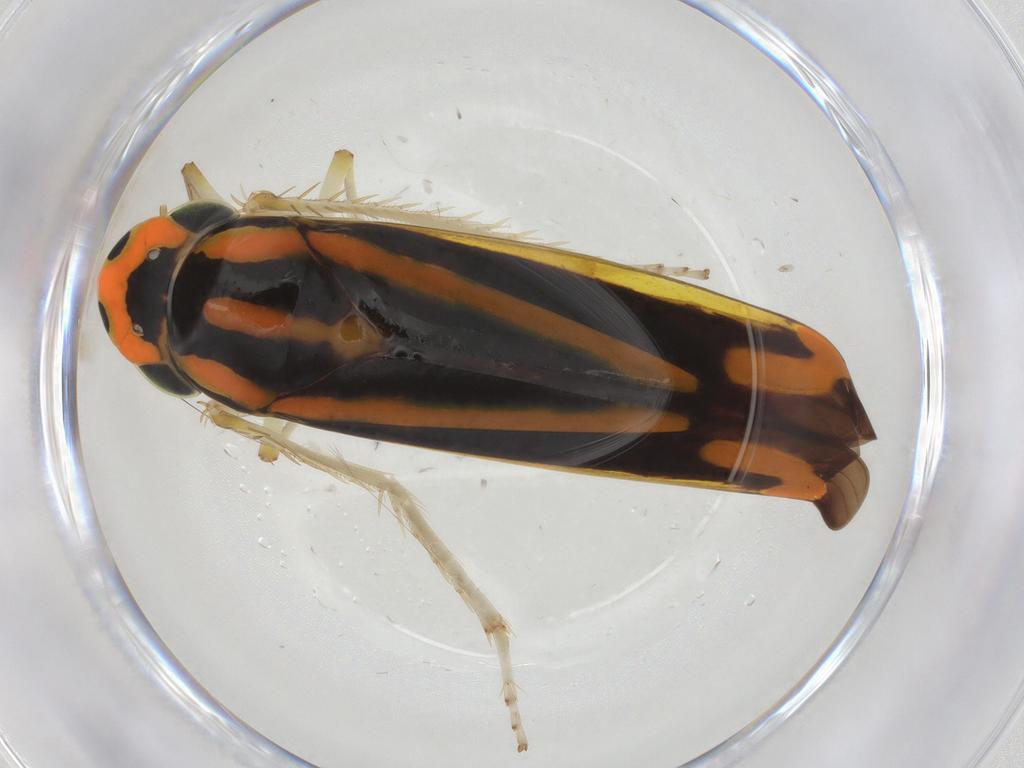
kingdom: Animalia
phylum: Arthropoda
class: Insecta
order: Hemiptera
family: Cicadellidae
